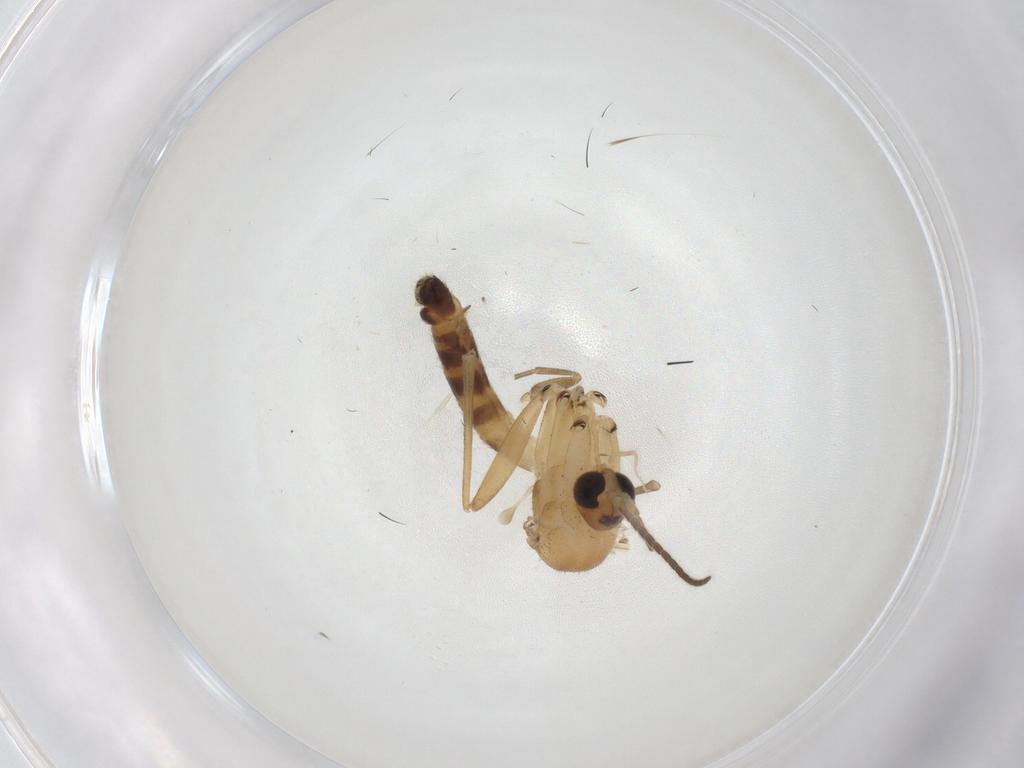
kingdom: Animalia
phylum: Arthropoda
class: Insecta
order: Diptera
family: Mycetophilidae
